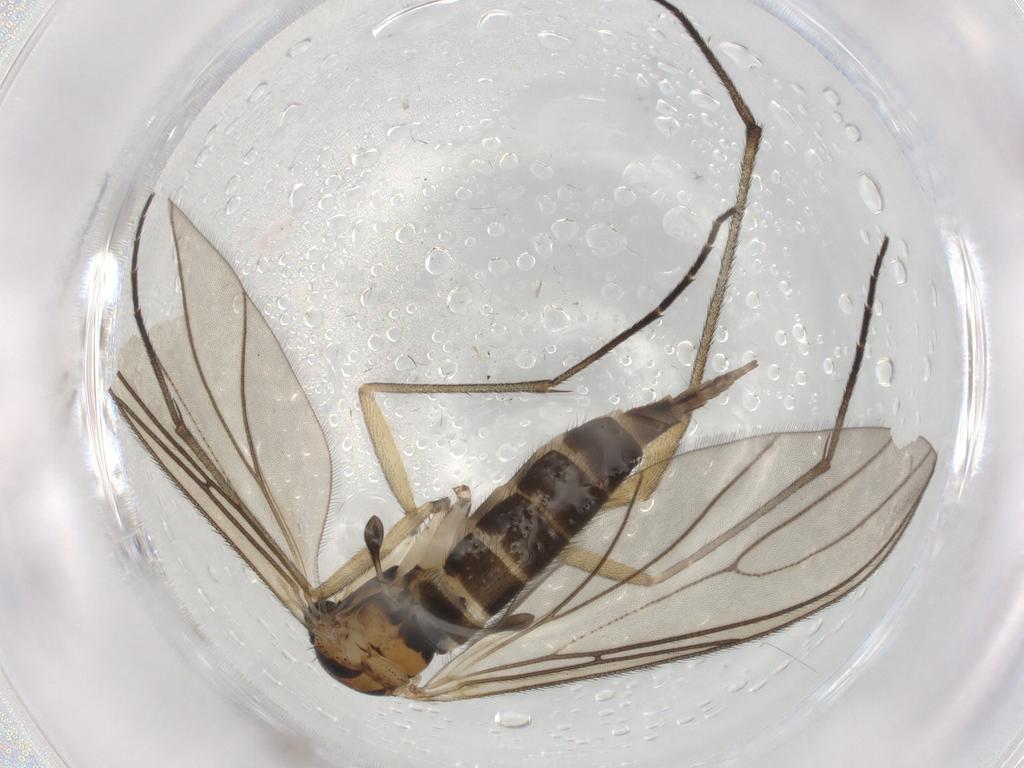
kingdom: Animalia
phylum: Arthropoda
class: Insecta
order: Diptera
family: Sciaridae
